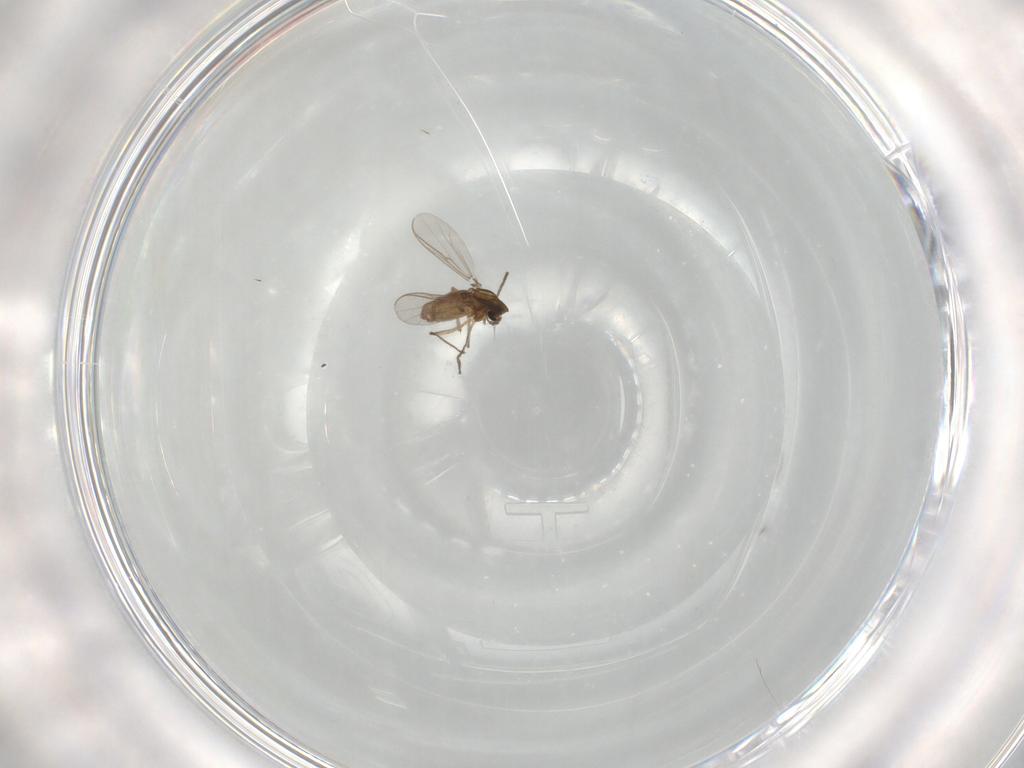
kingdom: Animalia
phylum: Arthropoda
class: Insecta
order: Diptera
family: Chironomidae
